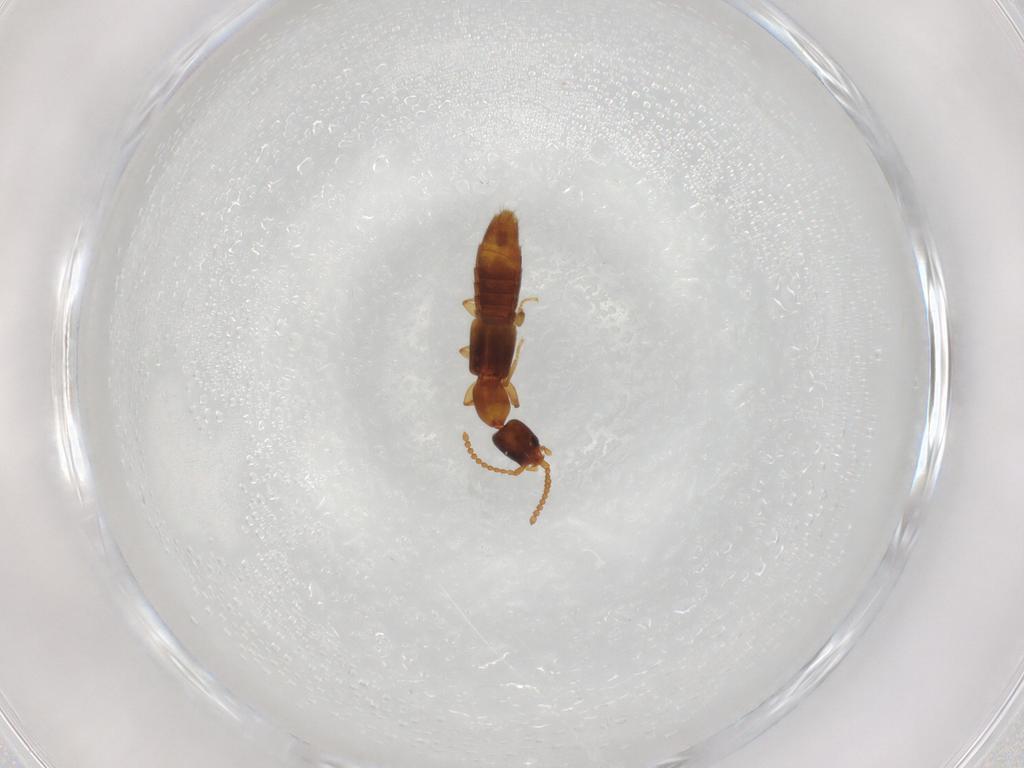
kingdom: Animalia
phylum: Arthropoda
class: Insecta
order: Coleoptera
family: Staphylinidae
